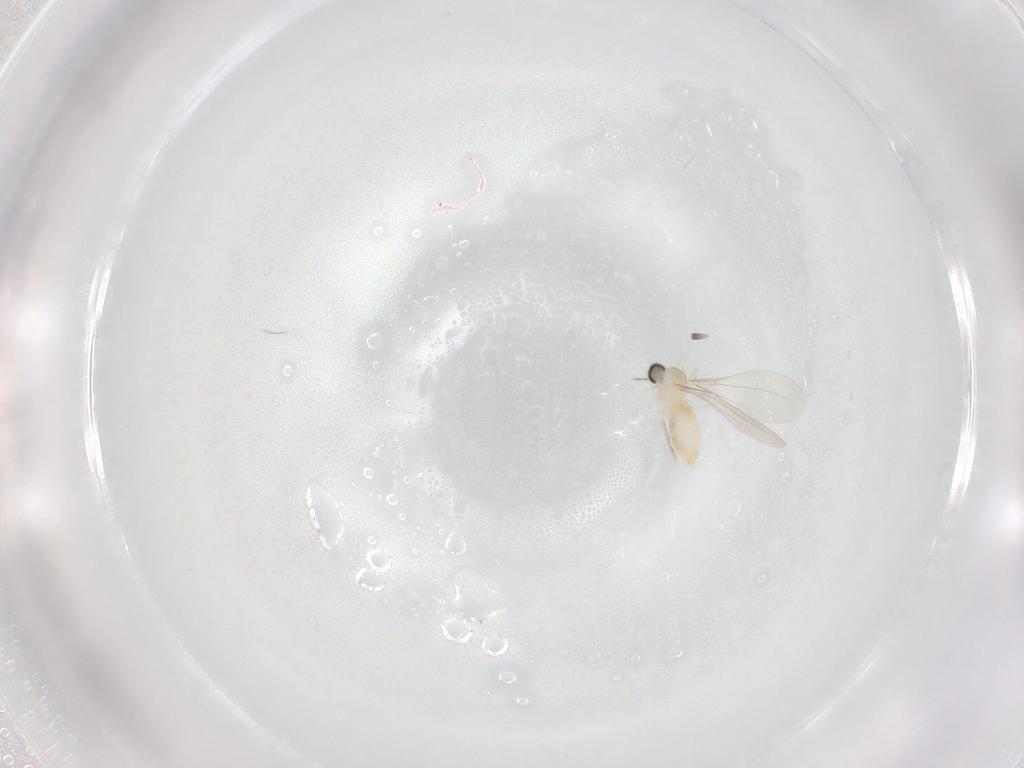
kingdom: Animalia
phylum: Arthropoda
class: Insecta
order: Diptera
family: Cecidomyiidae
